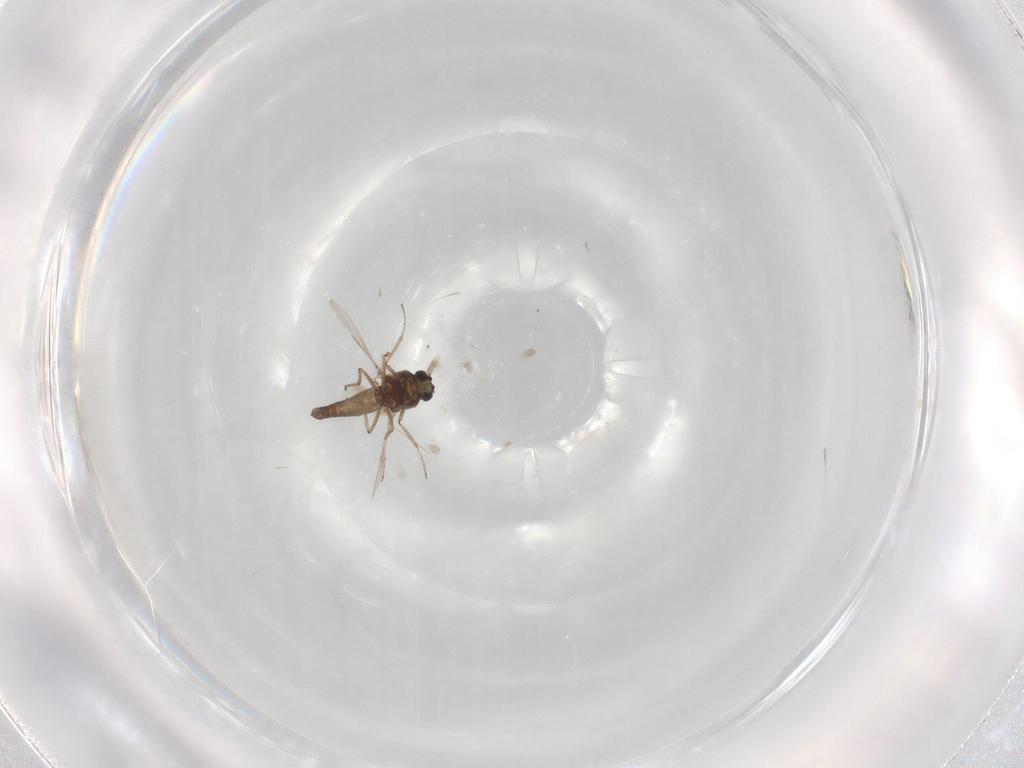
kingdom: Animalia
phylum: Arthropoda
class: Insecta
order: Diptera
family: Ceratopogonidae
